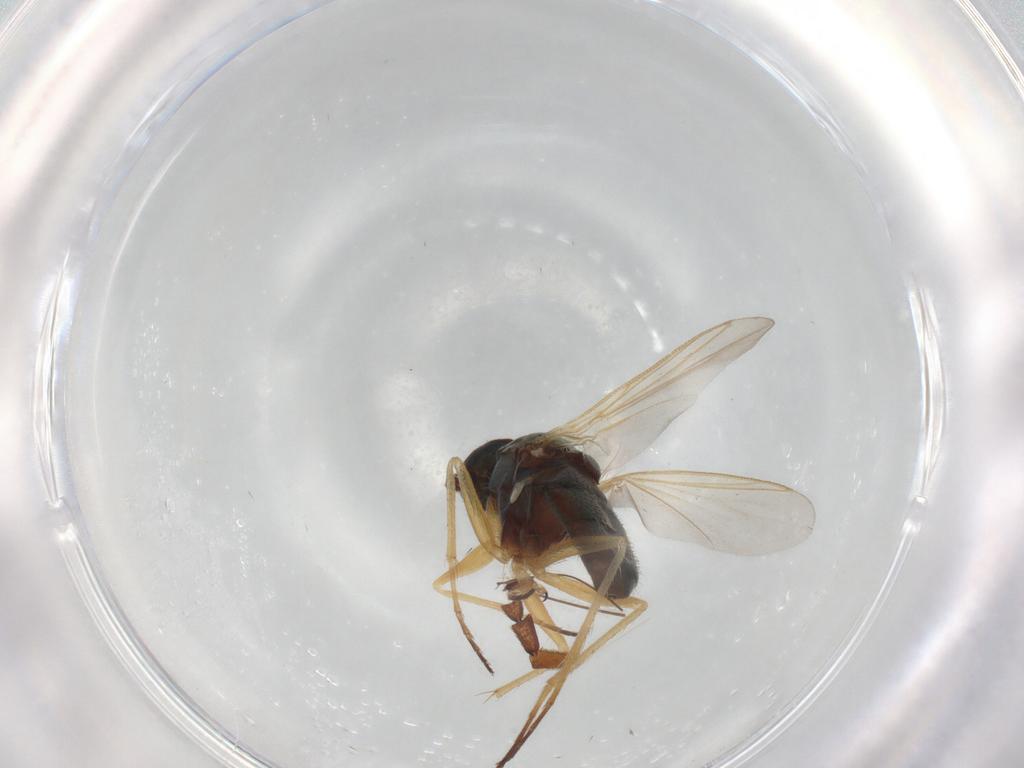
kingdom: Animalia
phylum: Arthropoda
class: Insecta
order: Diptera
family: Dolichopodidae
